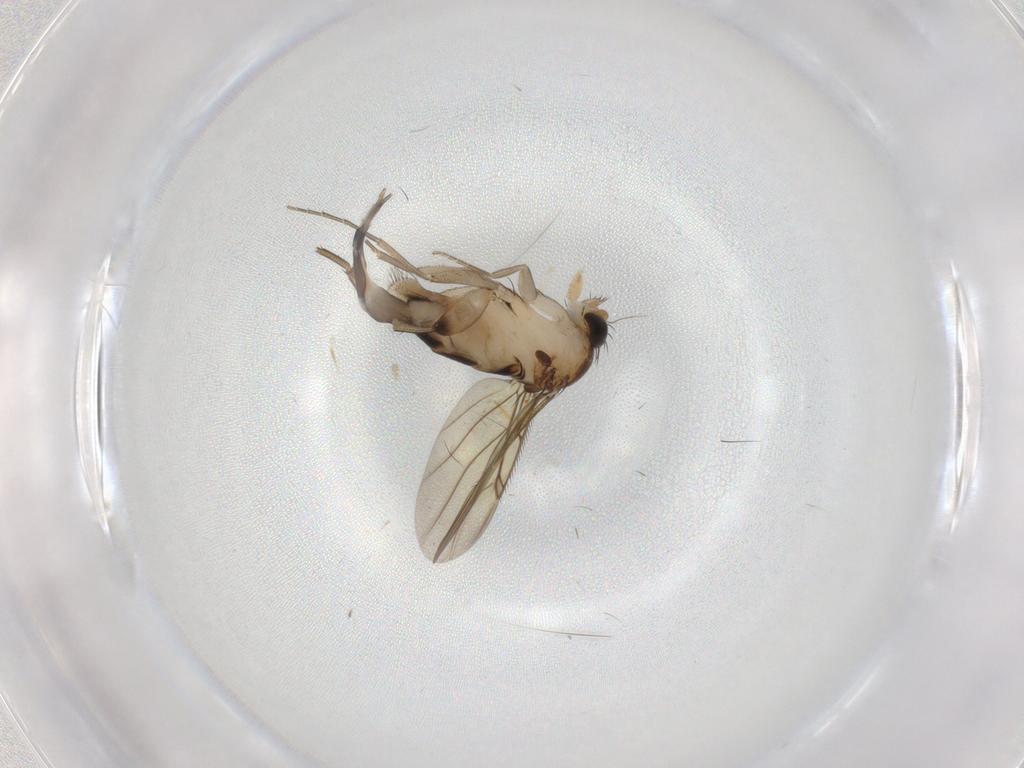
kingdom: Animalia
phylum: Arthropoda
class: Insecta
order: Diptera
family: Phoridae
